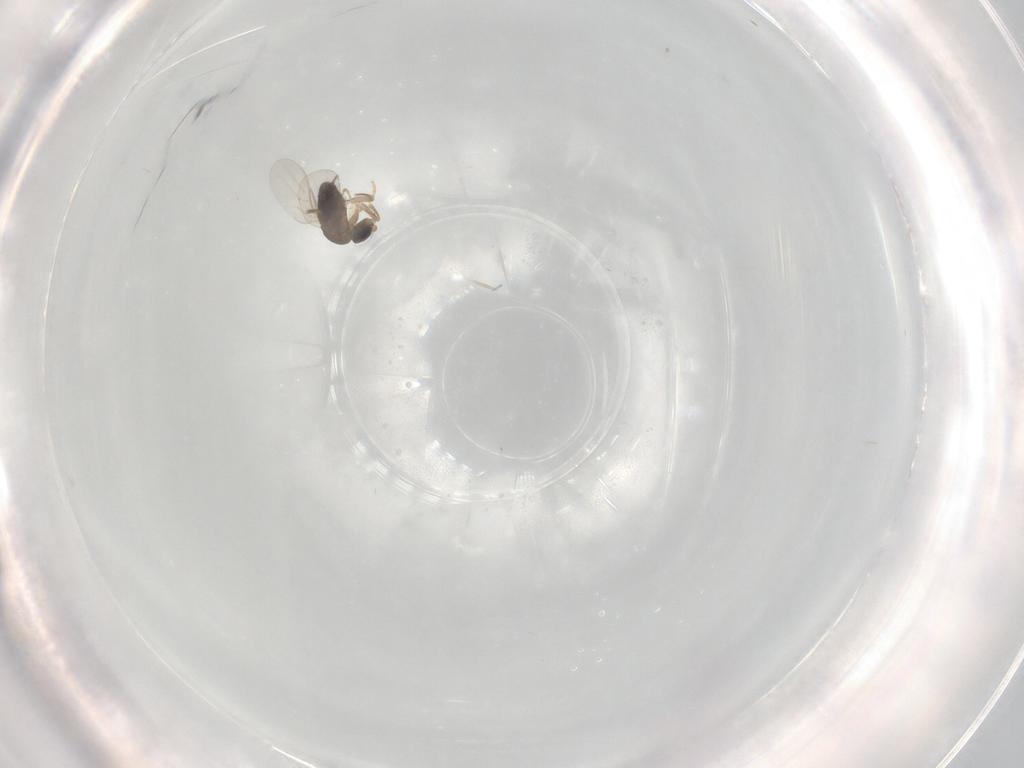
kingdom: Animalia
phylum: Arthropoda
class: Insecta
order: Diptera
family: Phoridae
